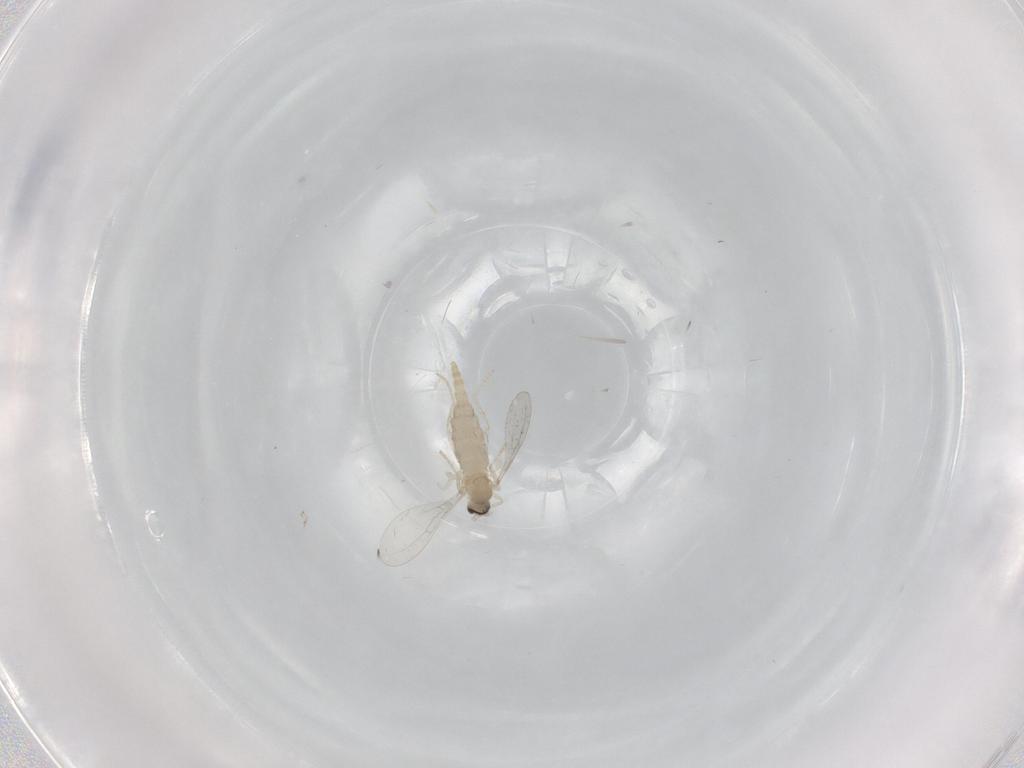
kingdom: Animalia
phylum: Arthropoda
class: Insecta
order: Diptera
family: Cecidomyiidae
